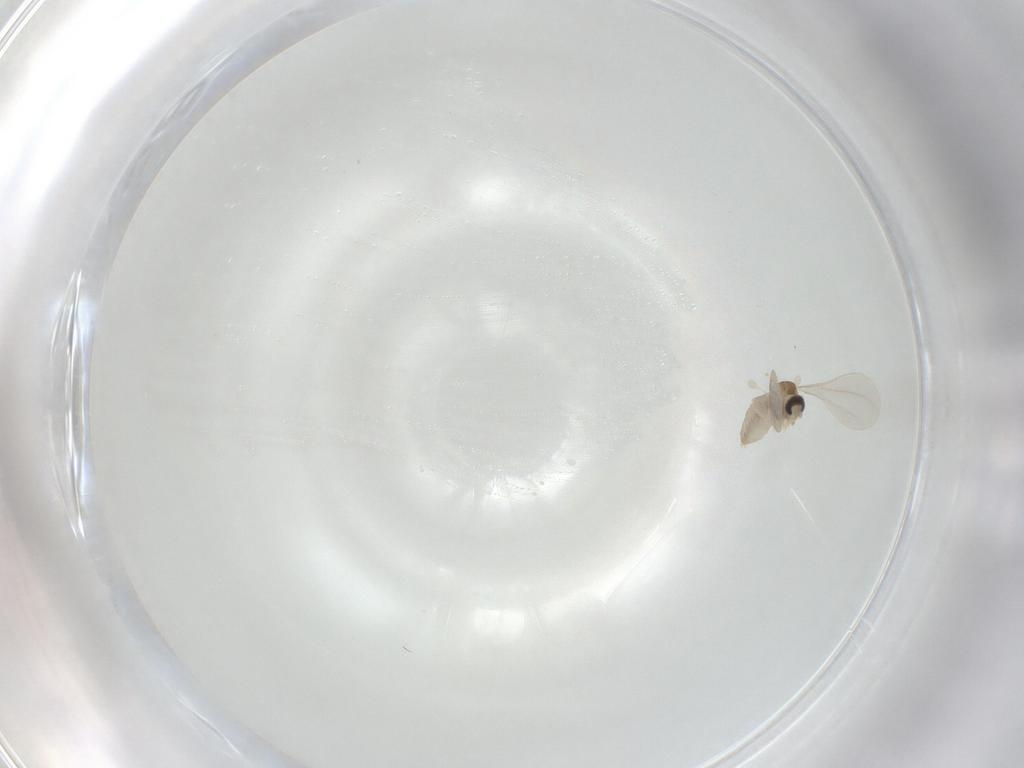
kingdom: Animalia
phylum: Arthropoda
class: Insecta
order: Diptera
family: Cecidomyiidae
